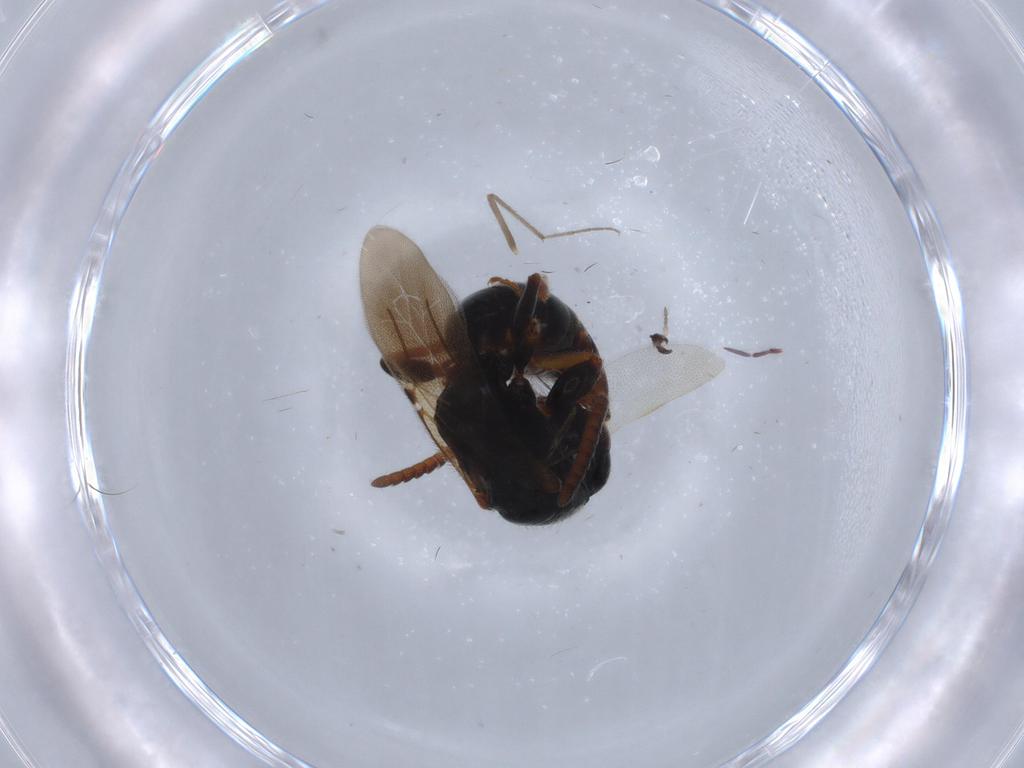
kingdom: Animalia
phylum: Arthropoda
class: Insecta
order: Hymenoptera
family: Bethylidae
